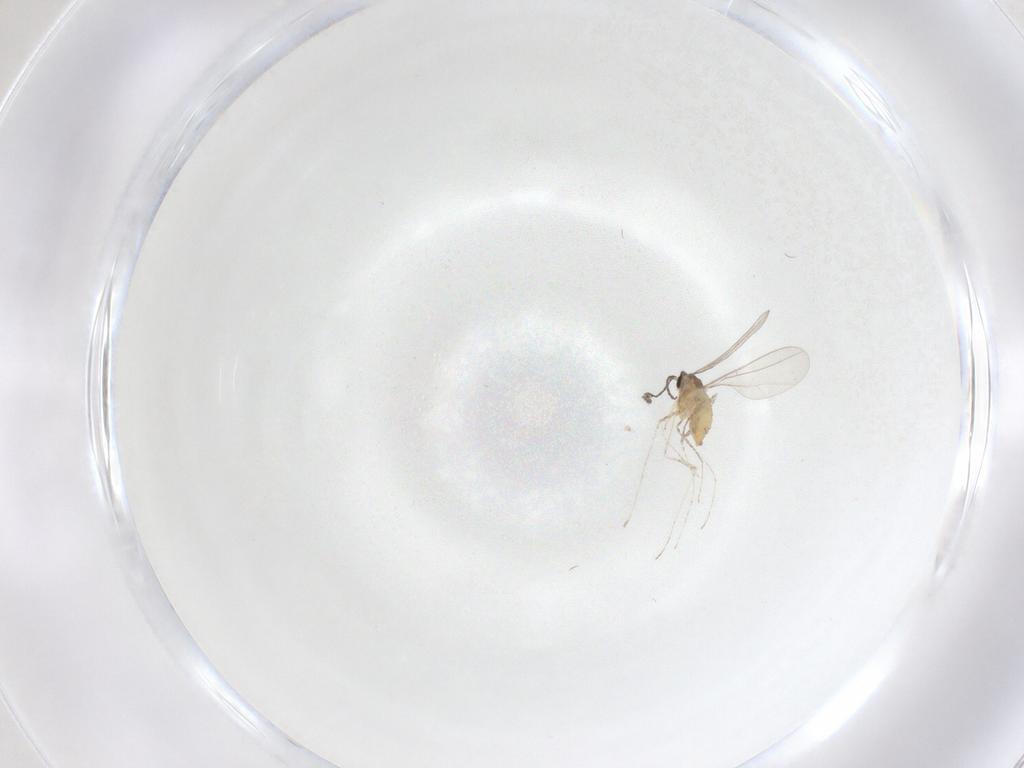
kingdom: Animalia
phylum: Arthropoda
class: Insecta
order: Diptera
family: Cecidomyiidae
